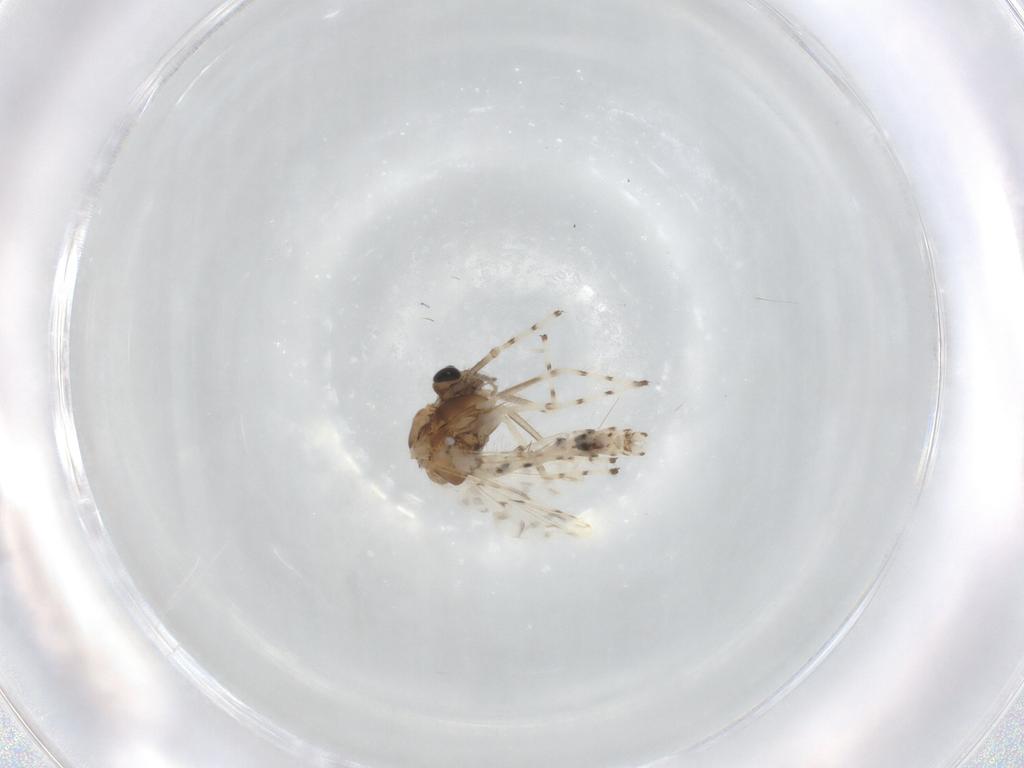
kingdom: Animalia
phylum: Arthropoda
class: Insecta
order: Diptera
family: Chironomidae
